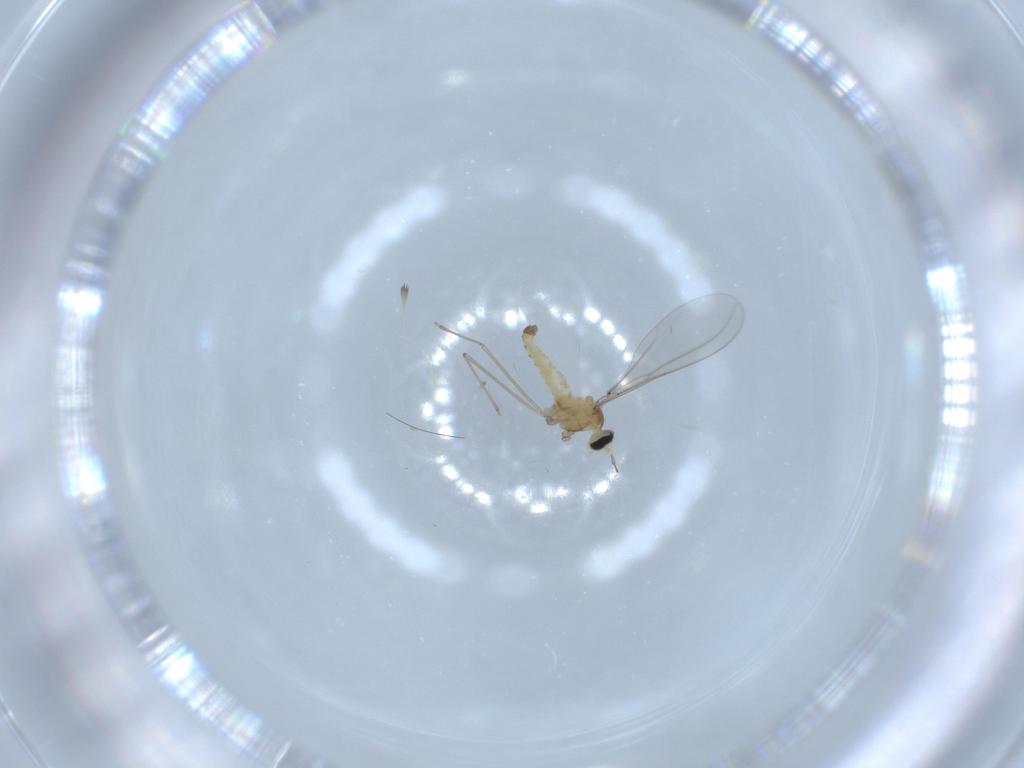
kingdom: Animalia
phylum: Arthropoda
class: Insecta
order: Diptera
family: Cecidomyiidae
